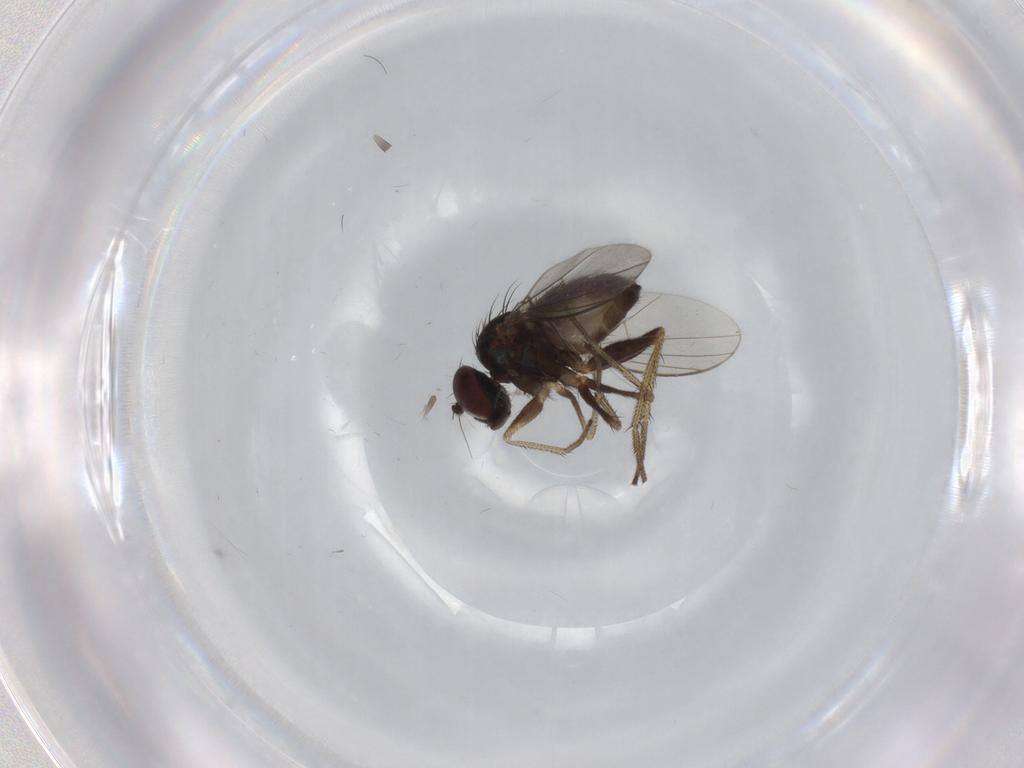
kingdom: Animalia
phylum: Arthropoda
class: Insecta
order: Diptera
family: Dolichopodidae
